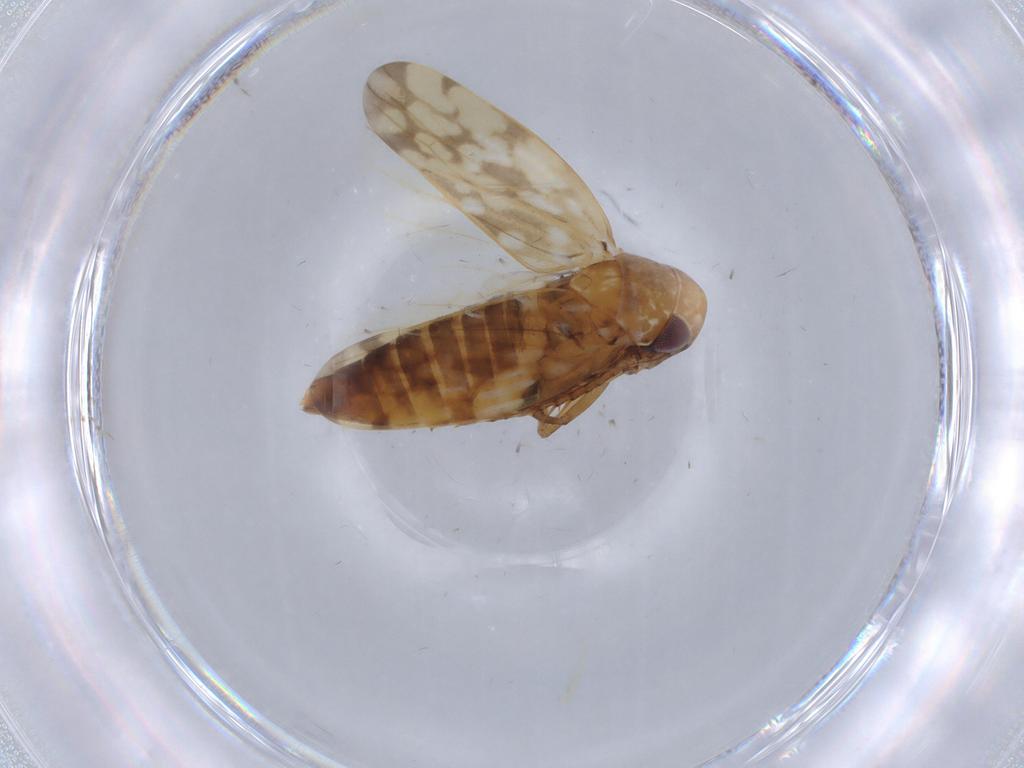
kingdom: Animalia
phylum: Arthropoda
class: Insecta
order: Hemiptera
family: Cicadellidae
